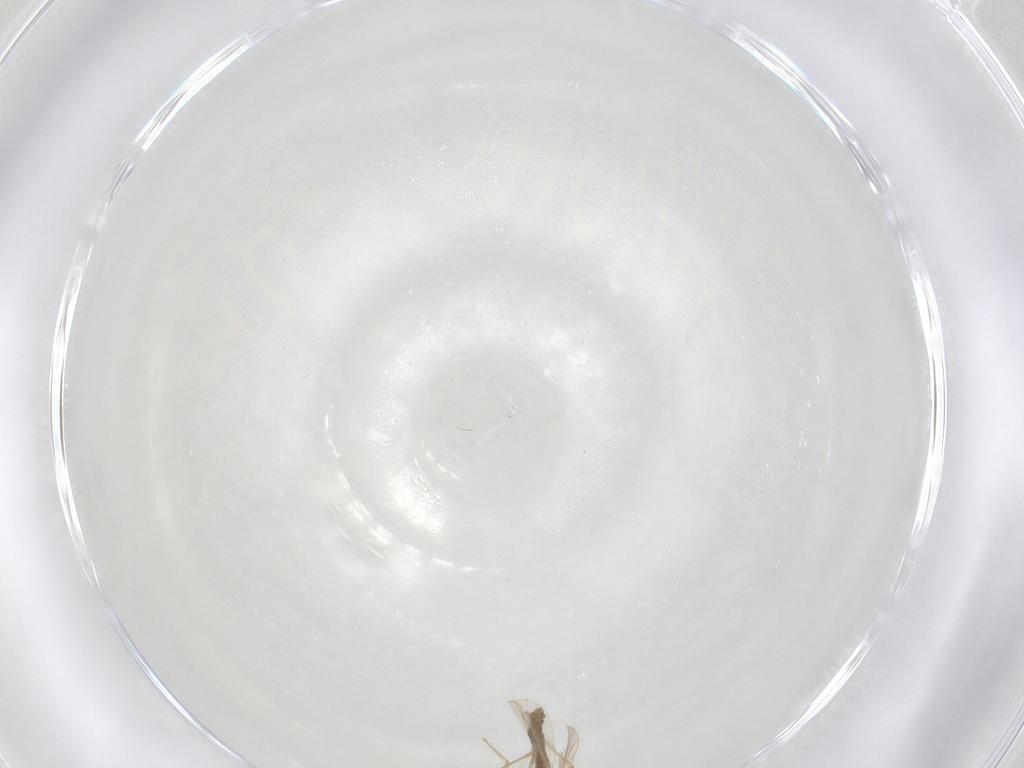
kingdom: Animalia
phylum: Arthropoda
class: Insecta
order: Diptera
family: Chironomidae
